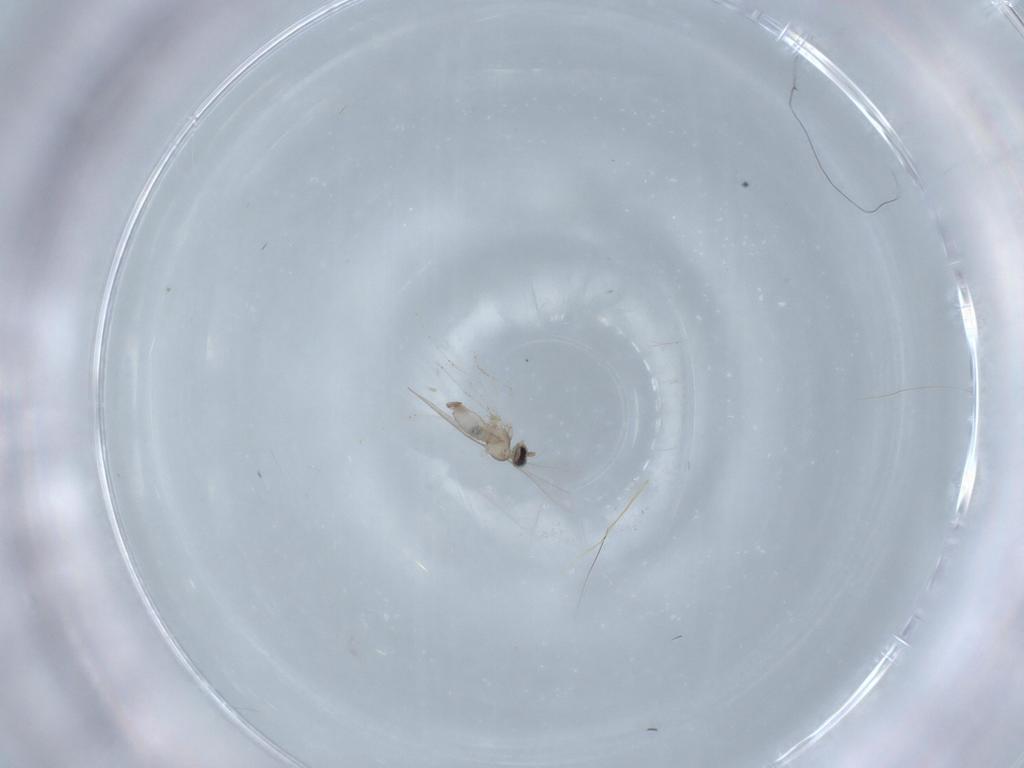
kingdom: Animalia
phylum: Arthropoda
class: Insecta
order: Diptera
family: Cecidomyiidae
